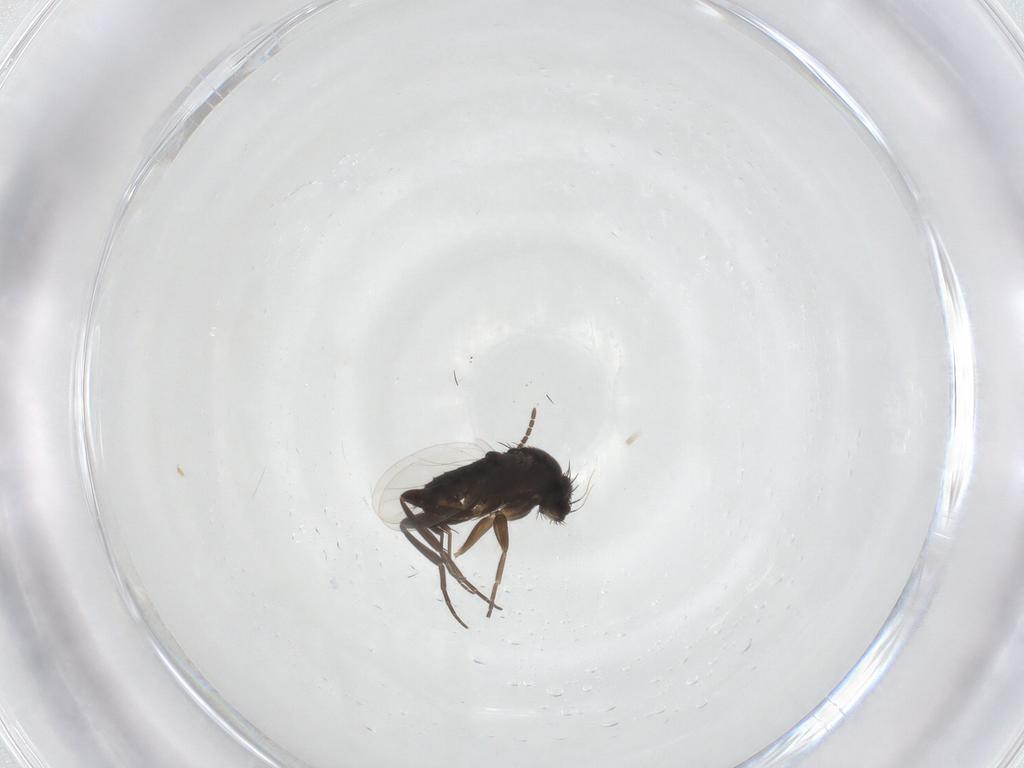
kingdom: Animalia
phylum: Arthropoda
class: Insecta
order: Diptera
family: Phoridae
